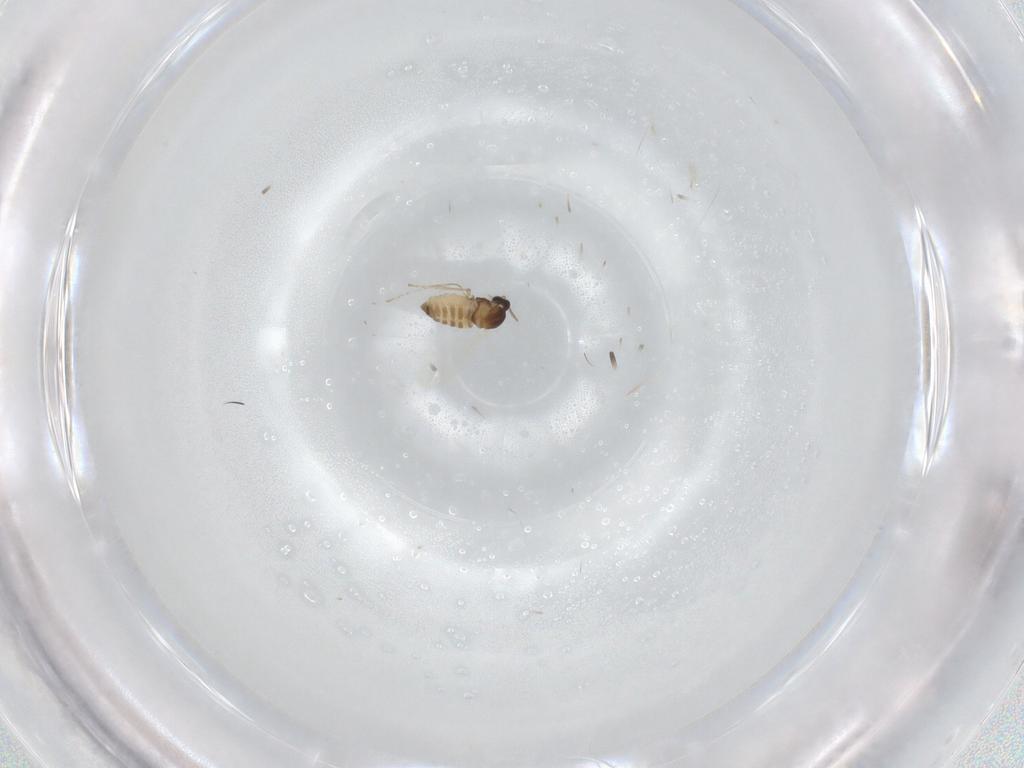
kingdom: Animalia
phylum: Arthropoda
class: Insecta
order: Diptera
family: Cecidomyiidae
